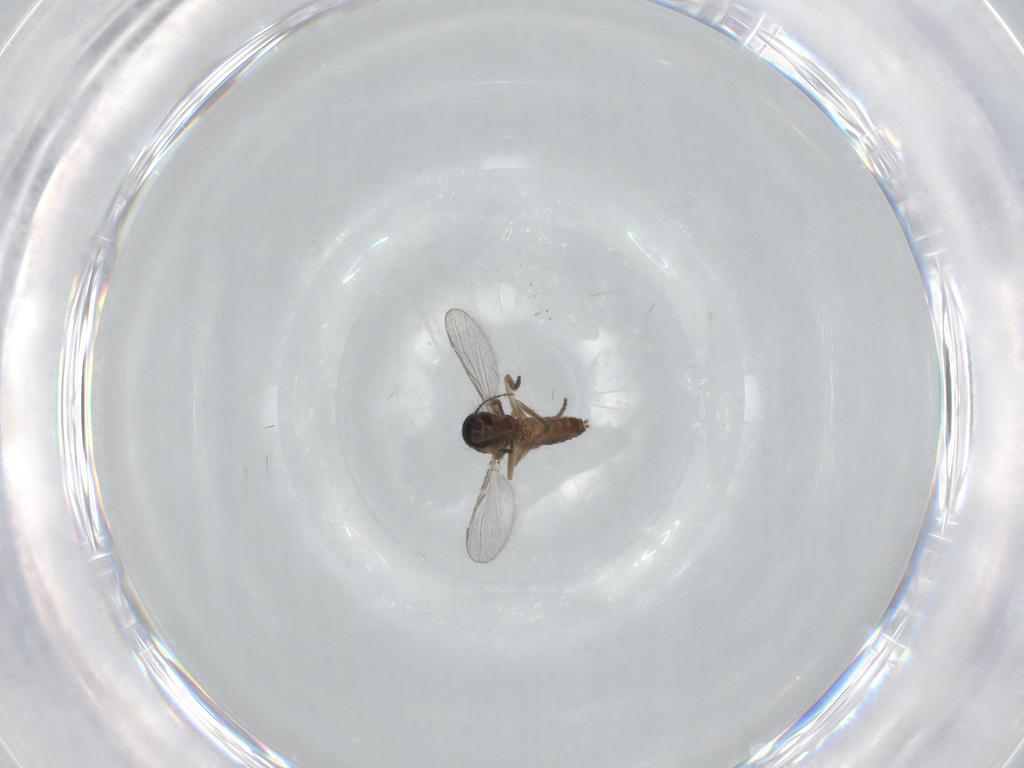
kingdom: Animalia
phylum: Arthropoda
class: Insecta
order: Diptera
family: Ceratopogonidae
